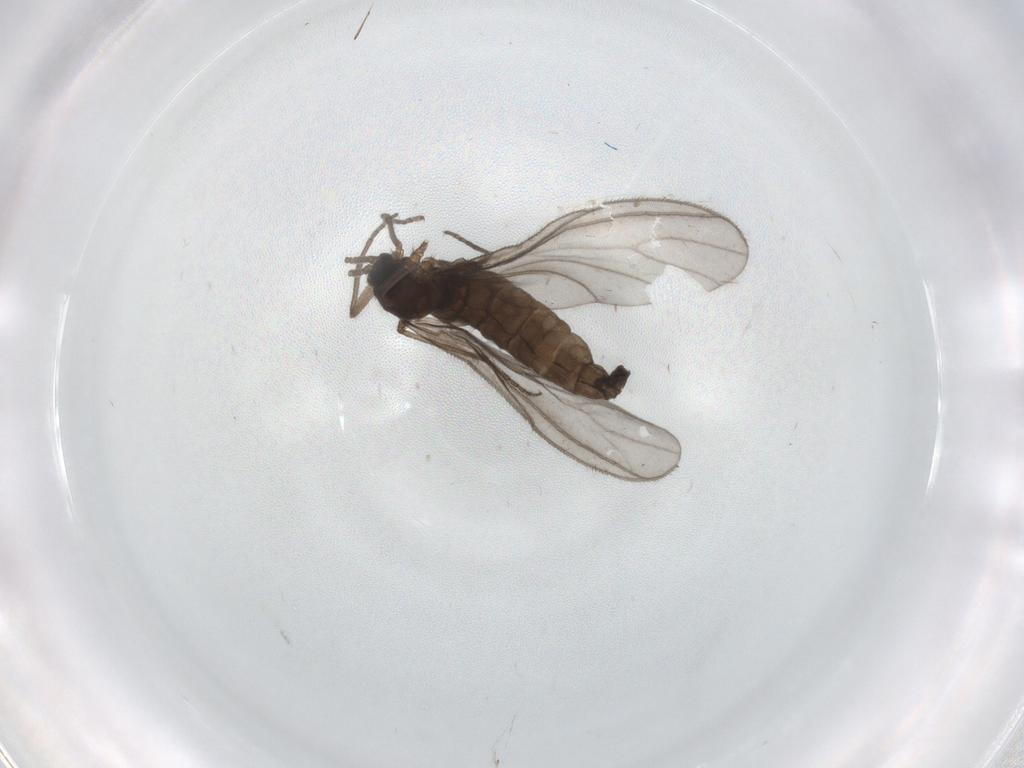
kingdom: Animalia
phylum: Arthropoda
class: Insecta
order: Diptera
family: Sciaridae
